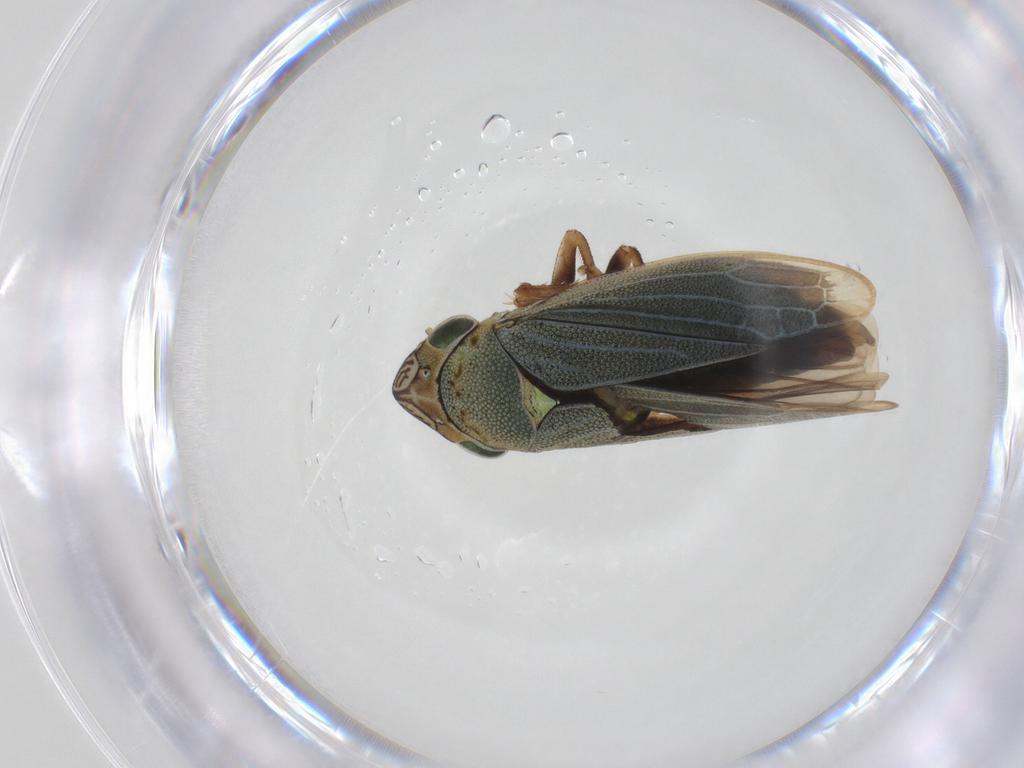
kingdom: Animalia
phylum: Arthropoda
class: Insecta
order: Hemiptera
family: Cicadellidae
